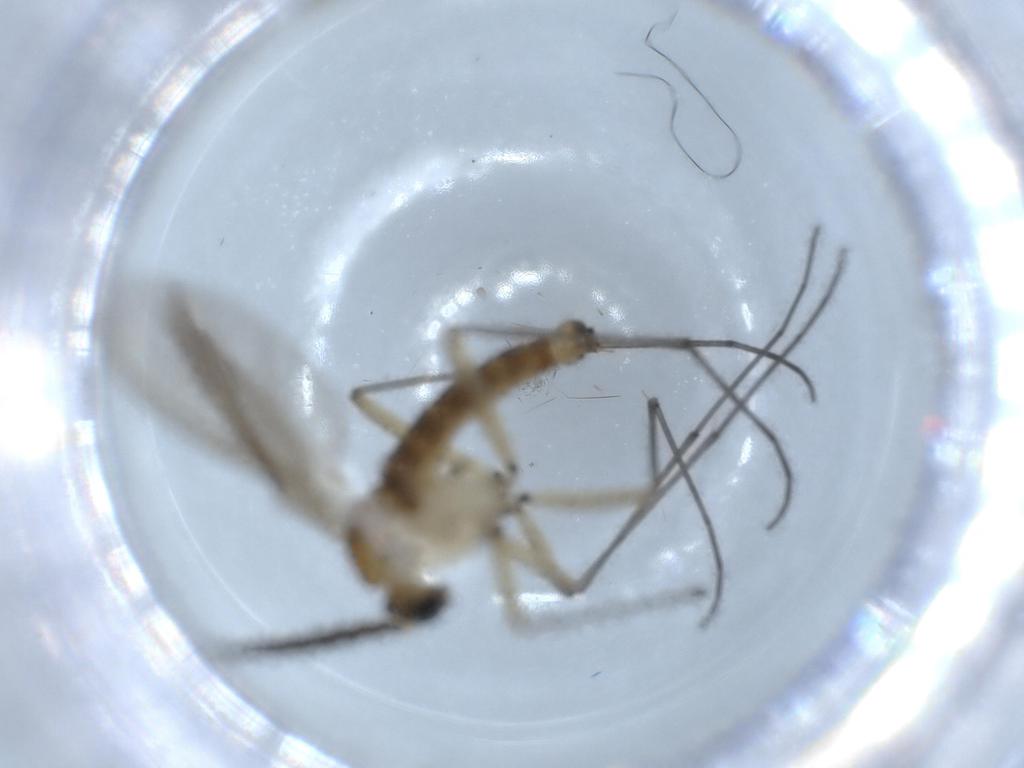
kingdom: Animalia
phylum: Arthropoda
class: Insecta
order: Diptera
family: Sciaridae
